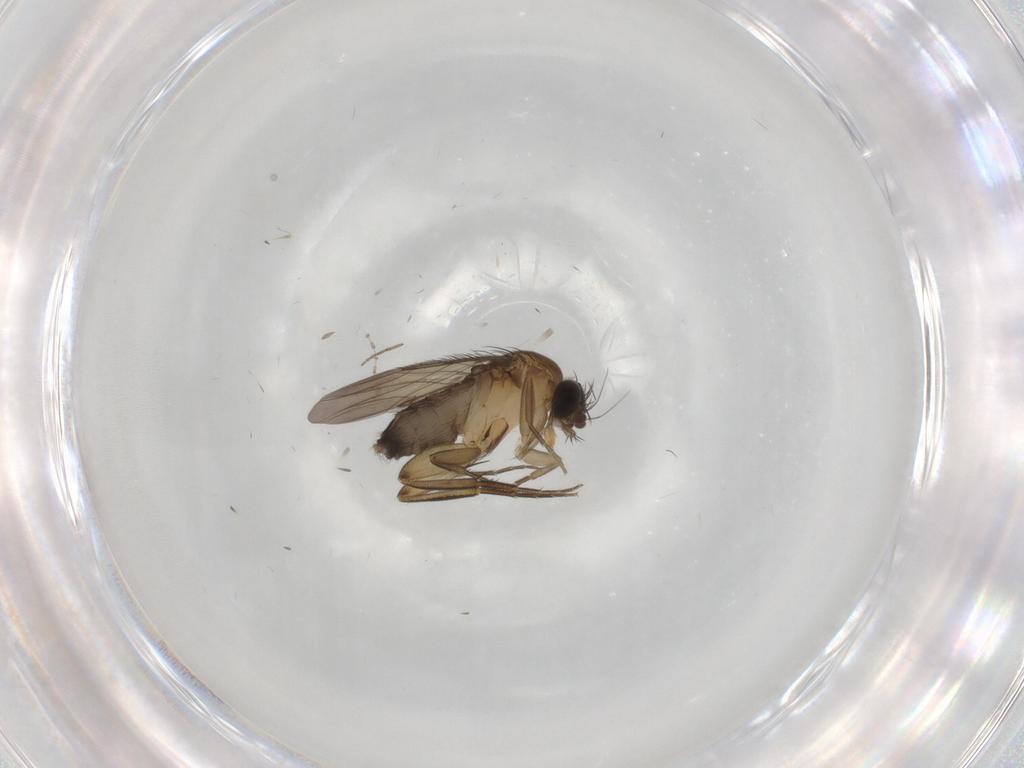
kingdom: Animalia
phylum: Arthropoda
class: Insecta
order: Diptera
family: Phoridae
